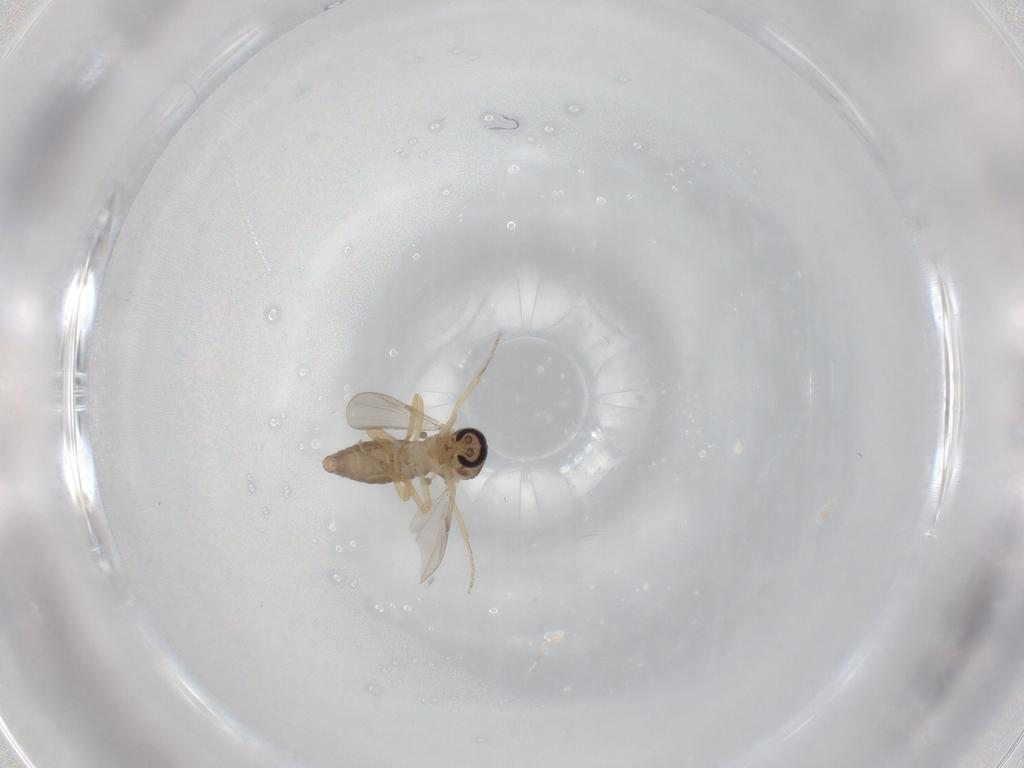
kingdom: Animalia
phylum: Arthropoda
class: Insecta
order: Diptera
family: Ceratopogonidae
